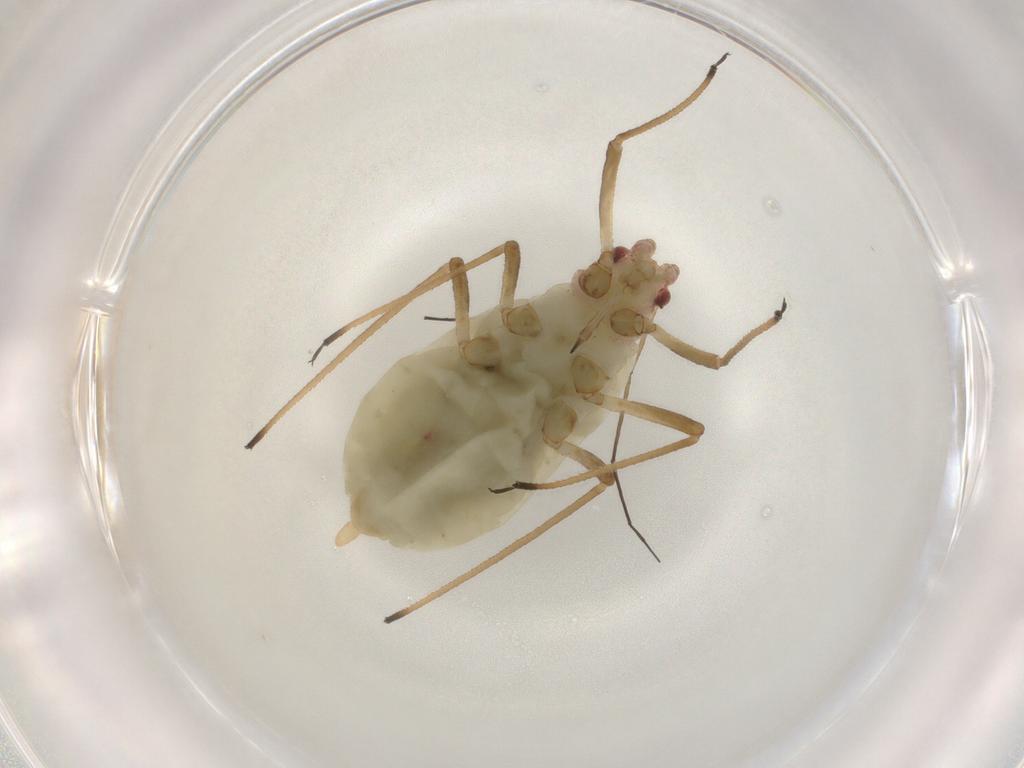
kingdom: Animalia
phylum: Arthropoda
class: Insecta
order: Hemiptera
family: Aphididae
